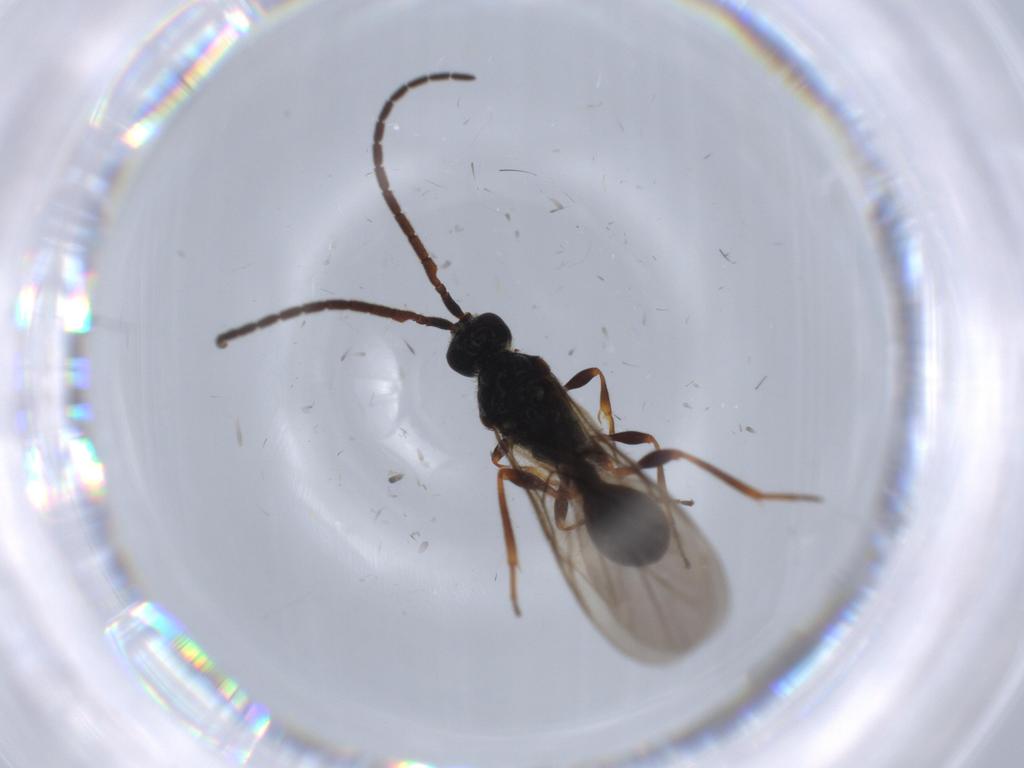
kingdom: Animalia
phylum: Arthropoda
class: Insecta
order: Hymenoptera
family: Diapriidae
